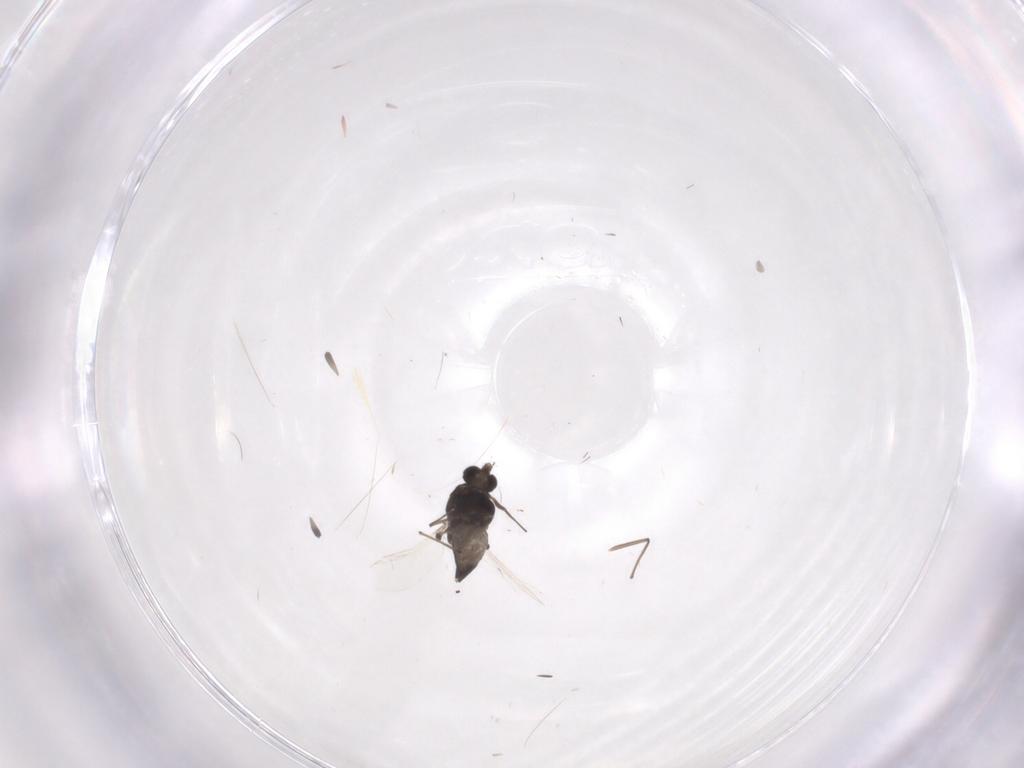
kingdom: Animalia
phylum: Arthropoda
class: Insecta
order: Diptera
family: Chironomidae
